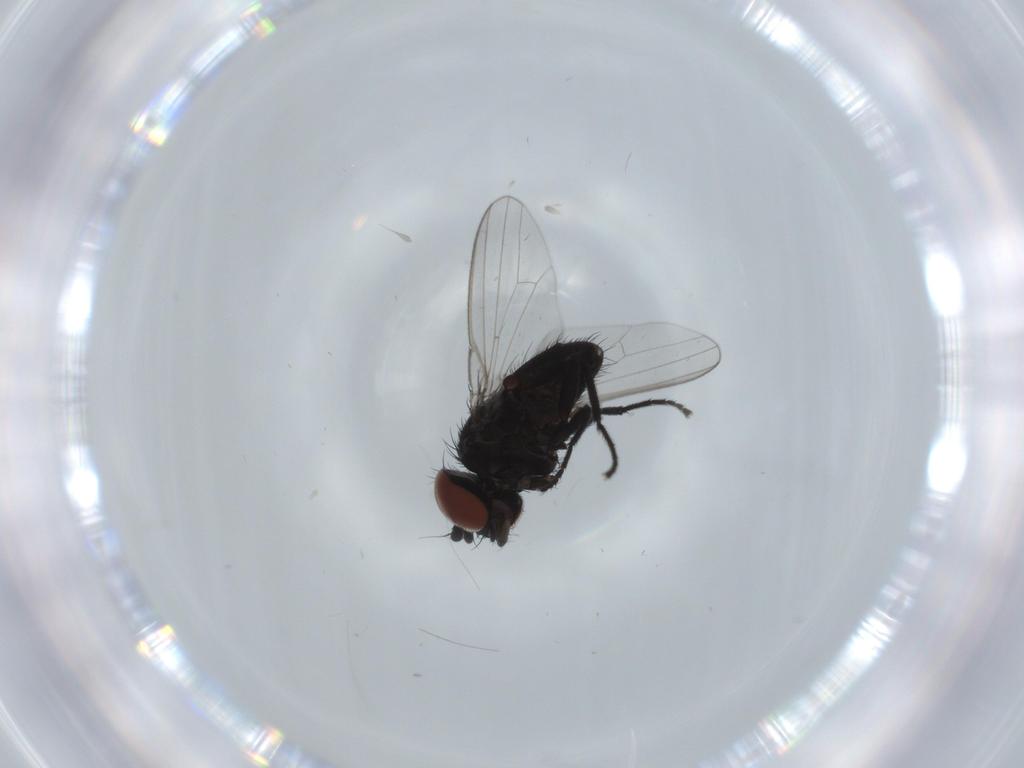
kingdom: Animalia
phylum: Arthropoda
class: Insecta
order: Diptera
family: Milichiidae
